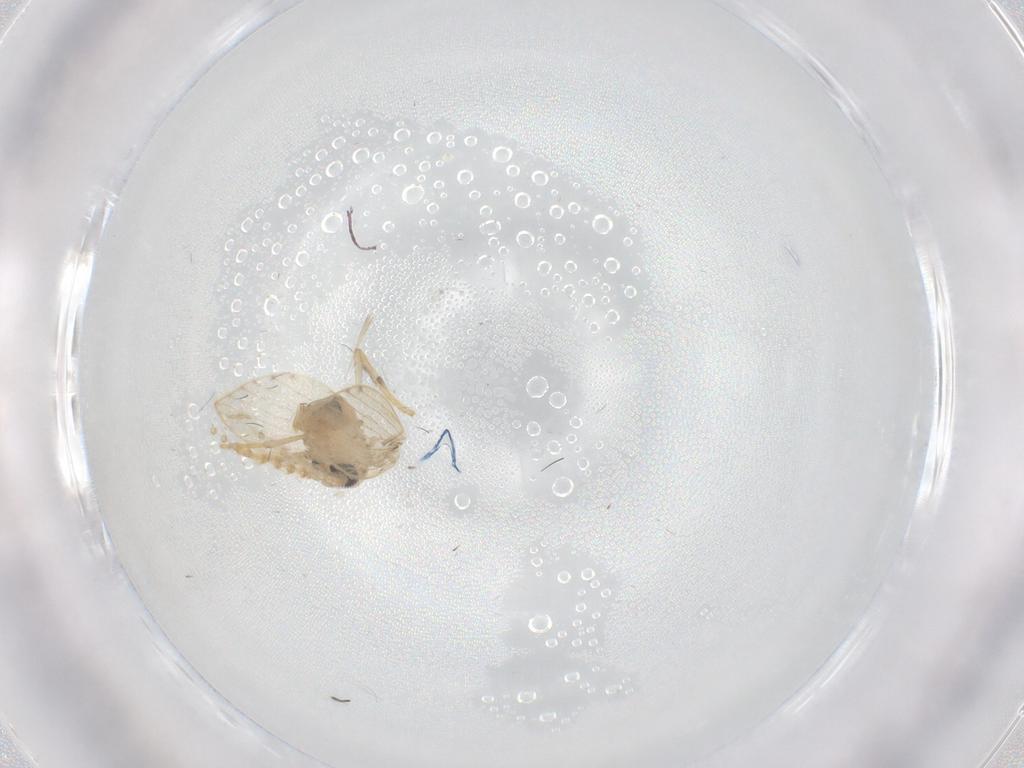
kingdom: Animalia
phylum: Arthropoda
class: Insecta
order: Diptera
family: Psychodidae
